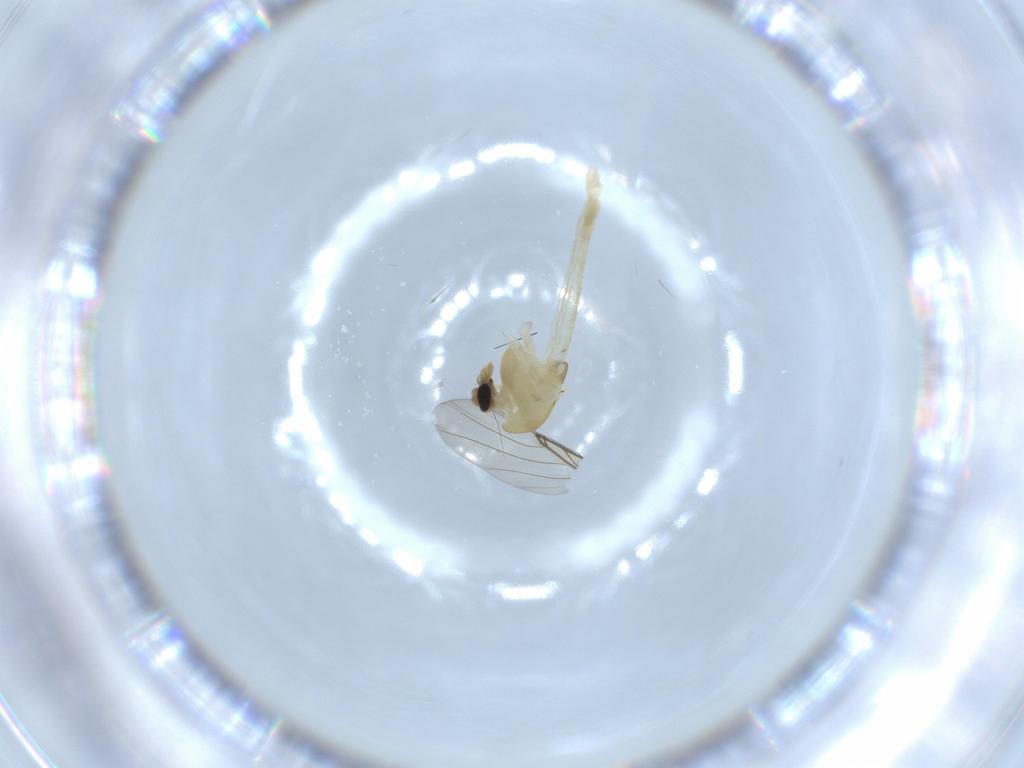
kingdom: Animalia
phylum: Arthropoda
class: Insecta
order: Diptera
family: Chironomidae
